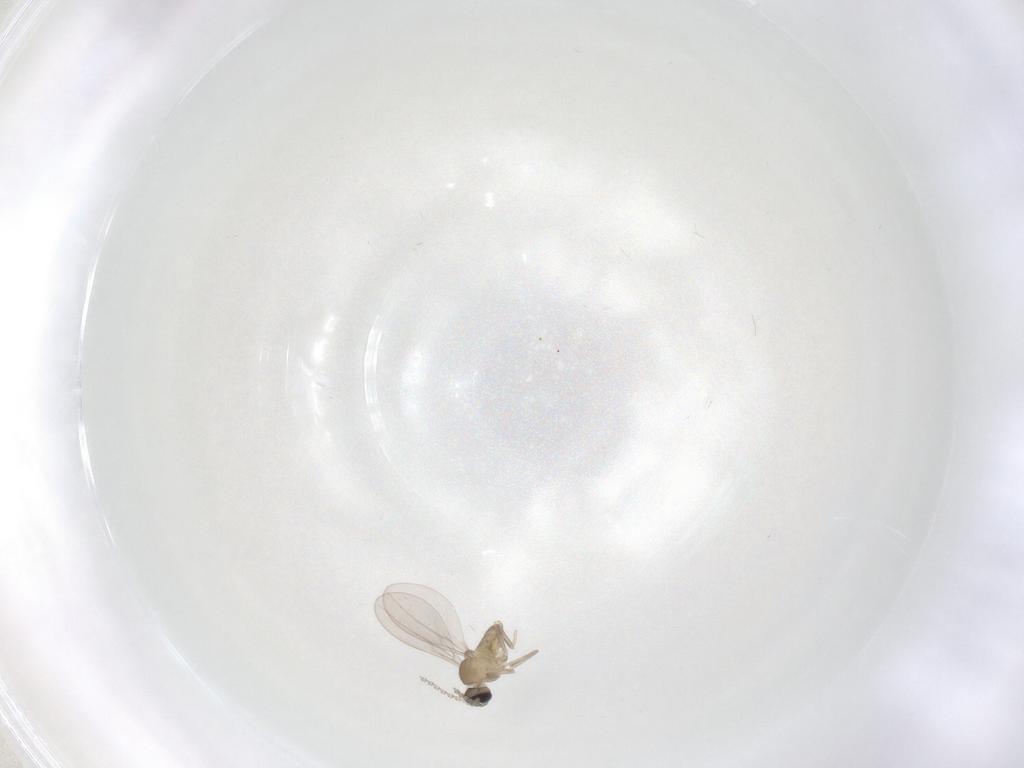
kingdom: Animalia
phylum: Arthropoda
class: Insecta
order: Diptera
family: Cecidomyiidae
